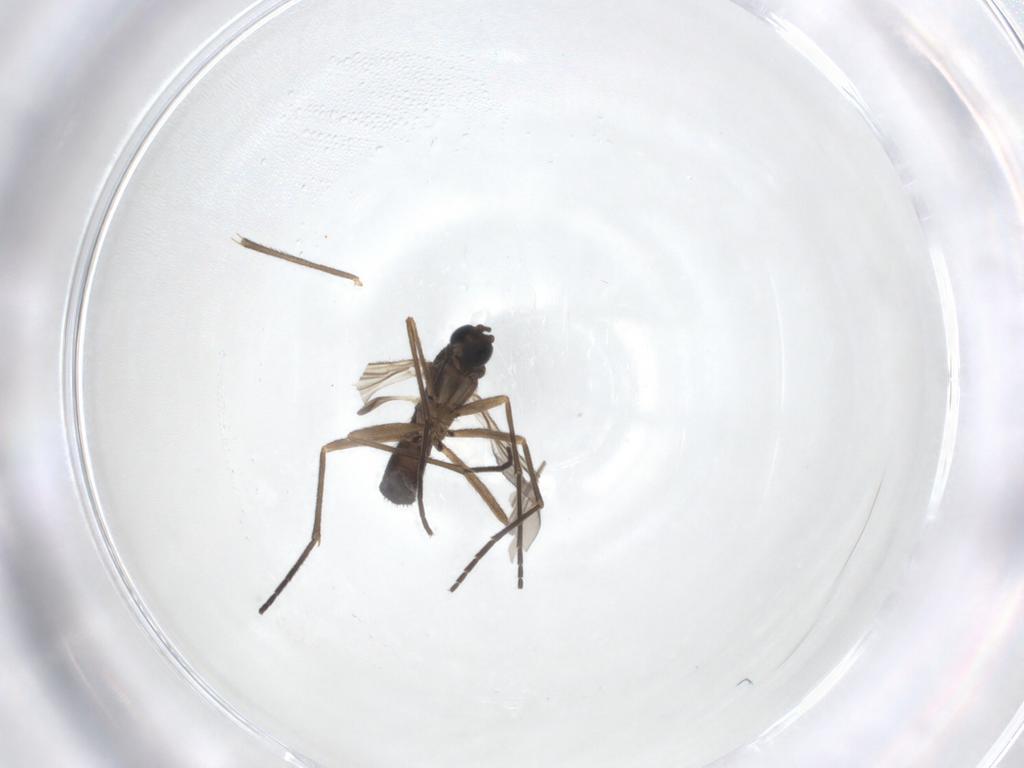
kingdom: Animalia
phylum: Arthropoda
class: Insecta
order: Diptera
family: Sciaridae
